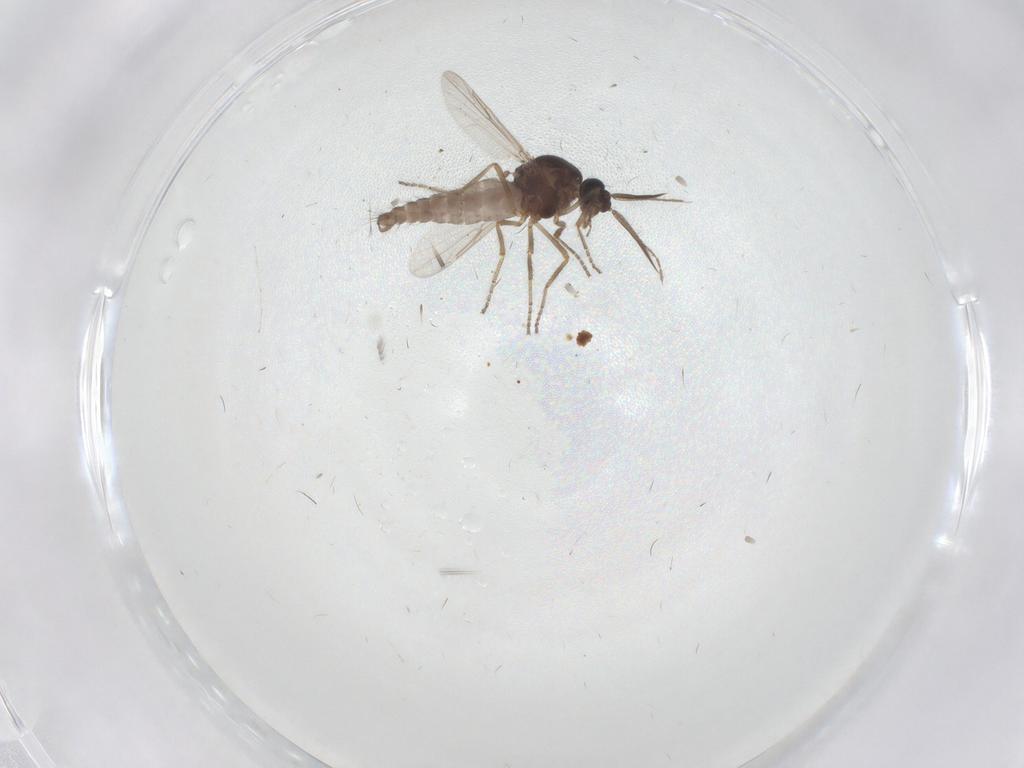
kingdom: Animalia
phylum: Arthropoda
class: Insecta
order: Diptera
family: Ceratopogonidae
